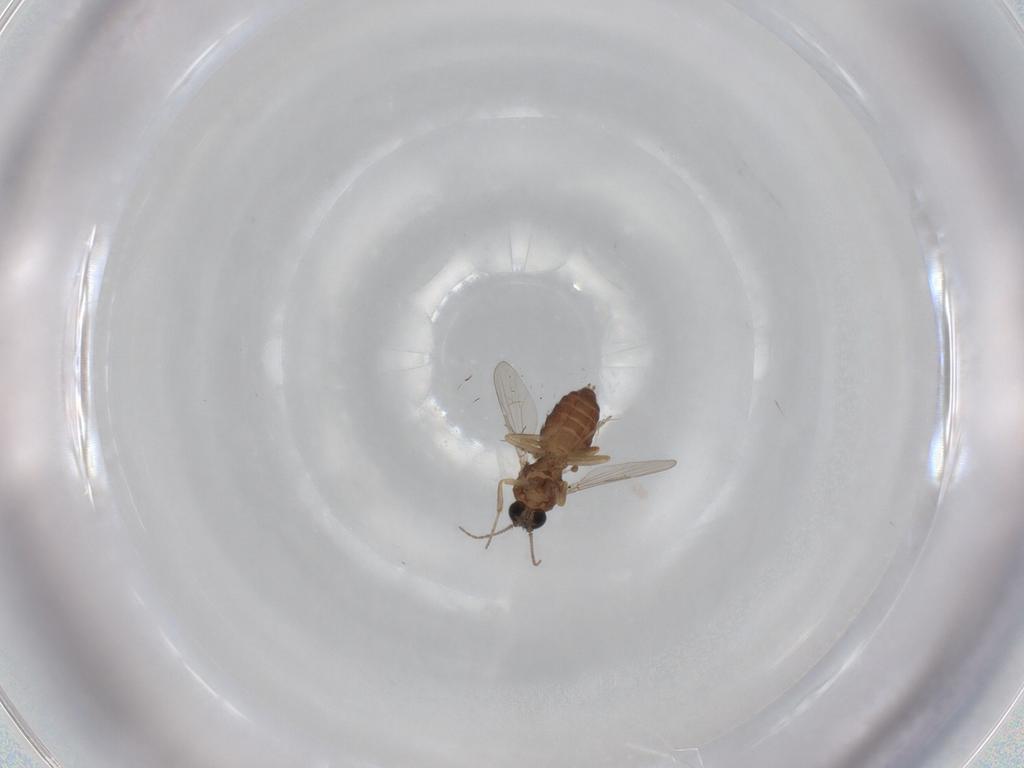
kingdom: Animalia
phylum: Arthropoda
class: Insecta
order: Diptera
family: Ceratopogonidae
